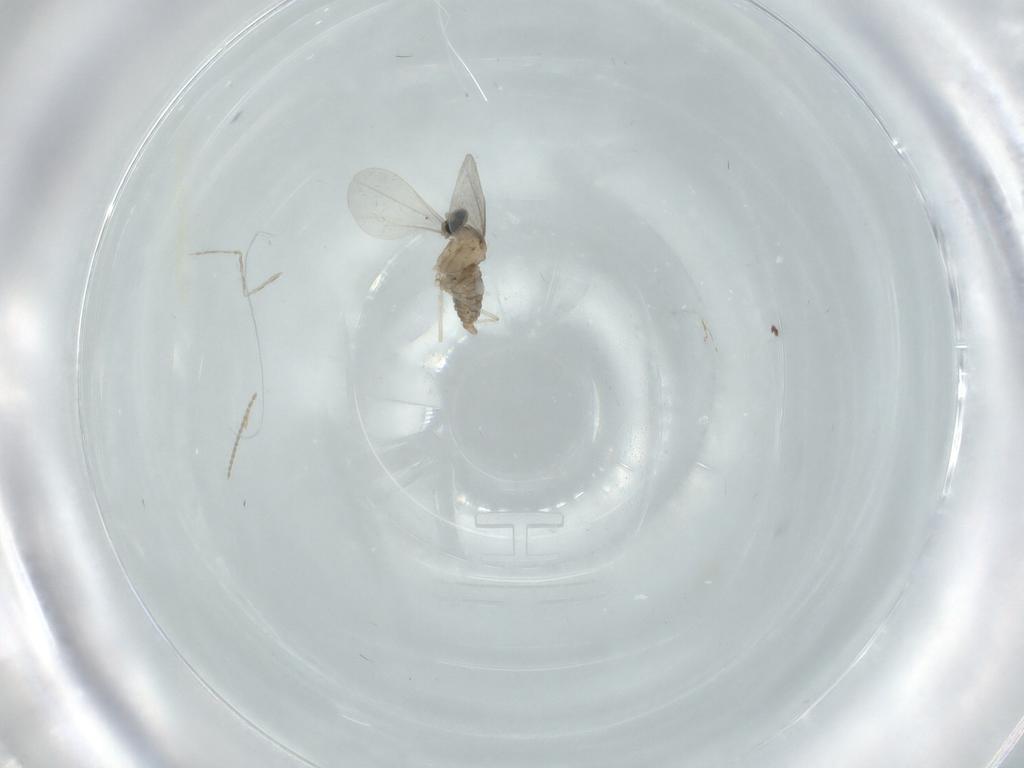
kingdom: Animalia
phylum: Arthropoda
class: Insecta
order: Diptera
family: Cecidomyiidae
